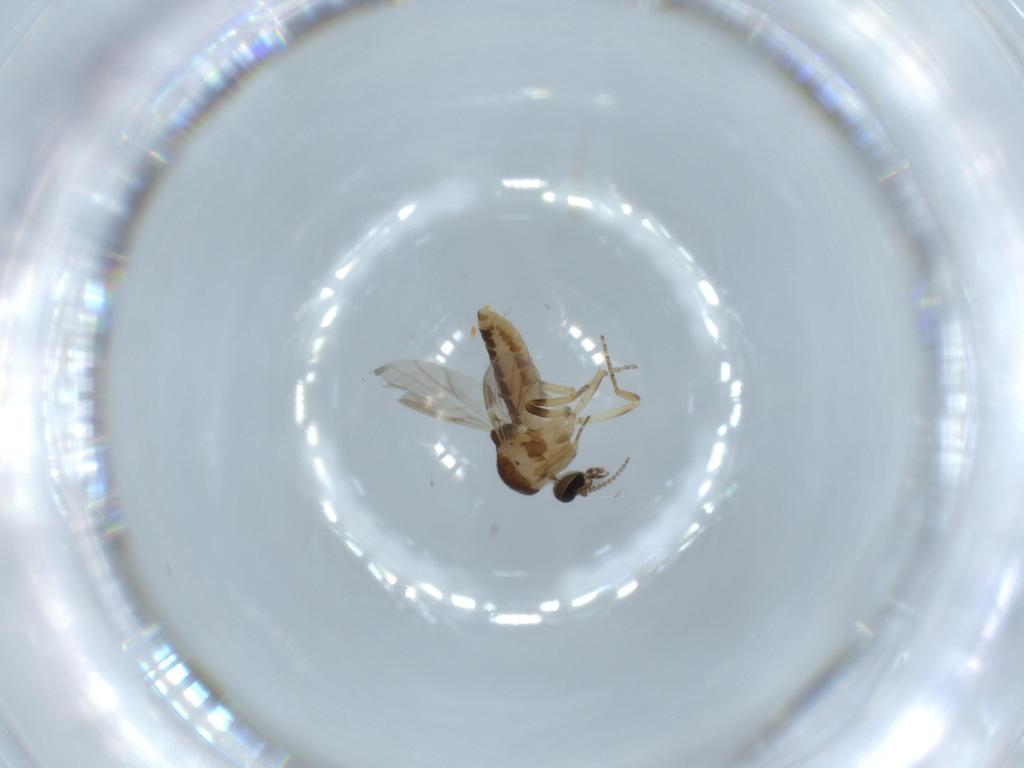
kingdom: Animalia
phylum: Arthropoda
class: Insecta
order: Diptera
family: Ceratopogonidae
